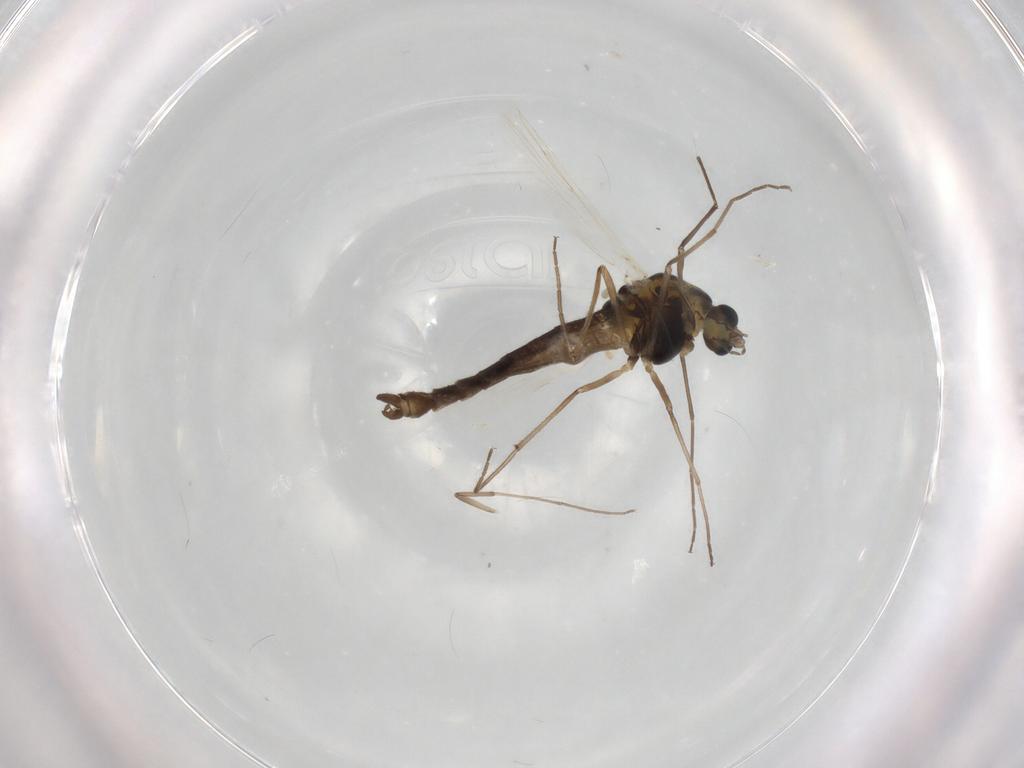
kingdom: Animalia
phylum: Arthropoda
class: Insecta
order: Diptera
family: Chironomidae
